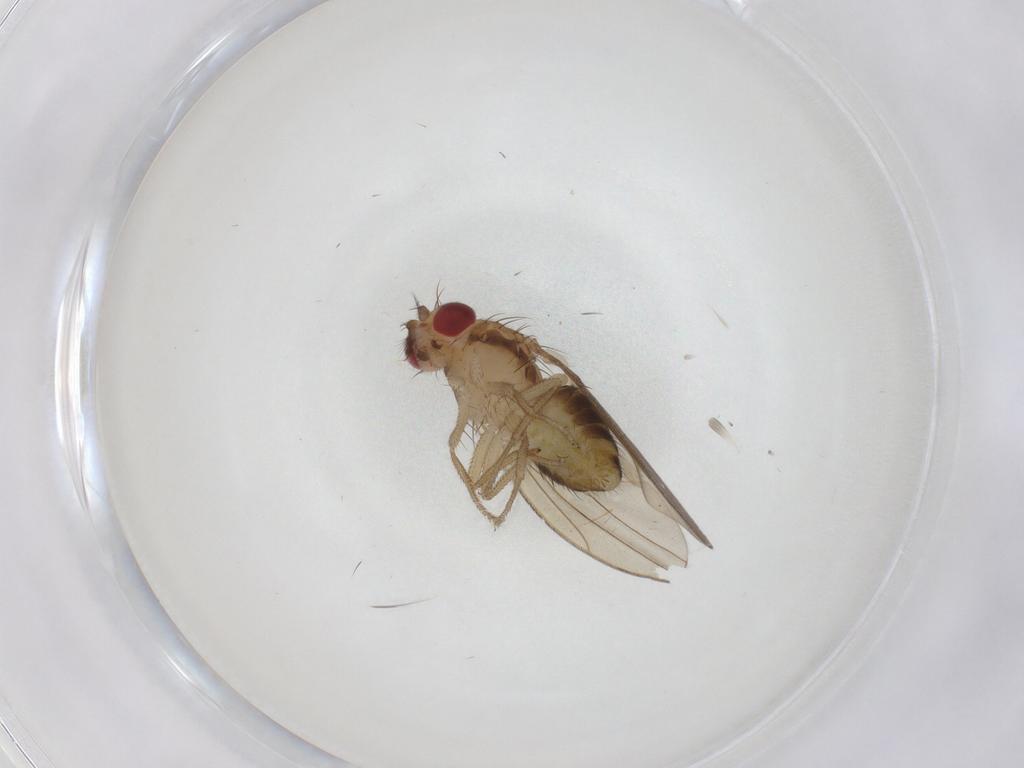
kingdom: Animalia
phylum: Arthropoda
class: Insecta
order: Diptera
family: Drosophilidae
